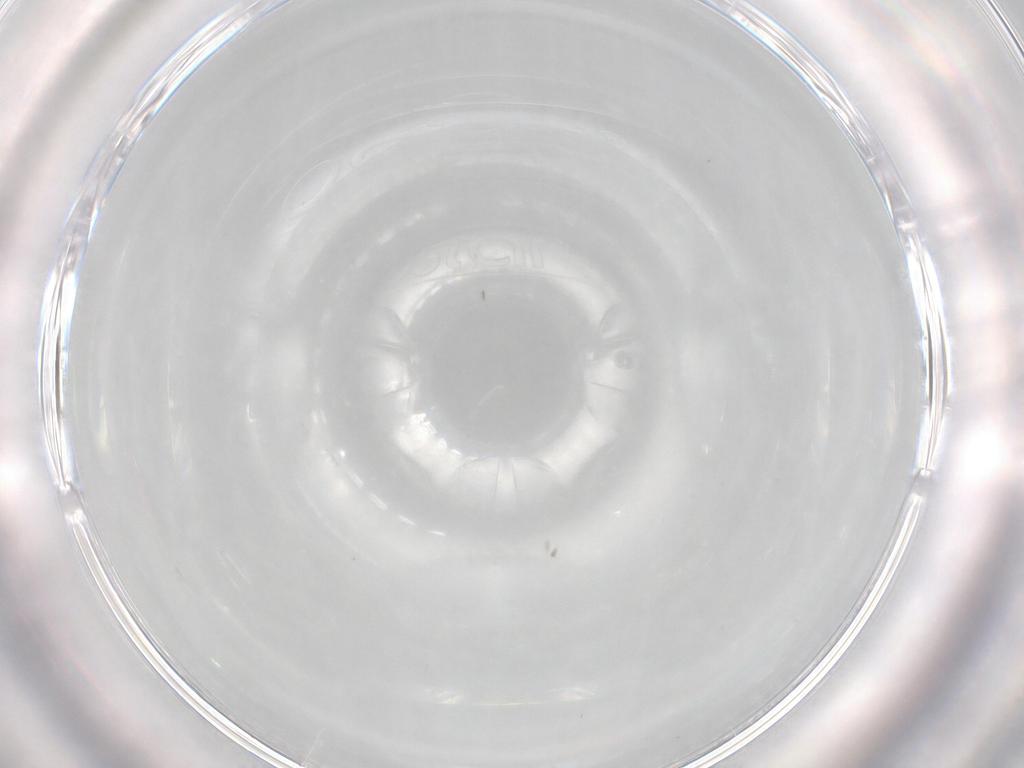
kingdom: Animalia
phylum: Arthropoda
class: Insecta
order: Diptera
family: Cecidomyiidae
